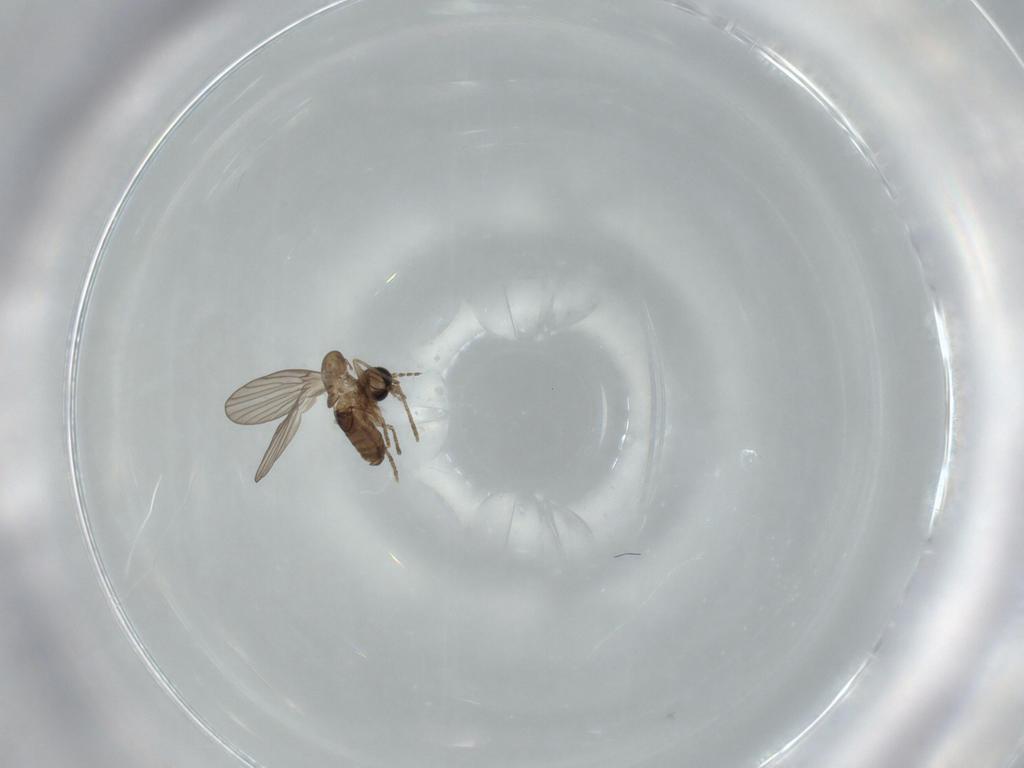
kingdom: Animalia
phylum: Arthropoda
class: Insecta
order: Diptera
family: Psychodidae
